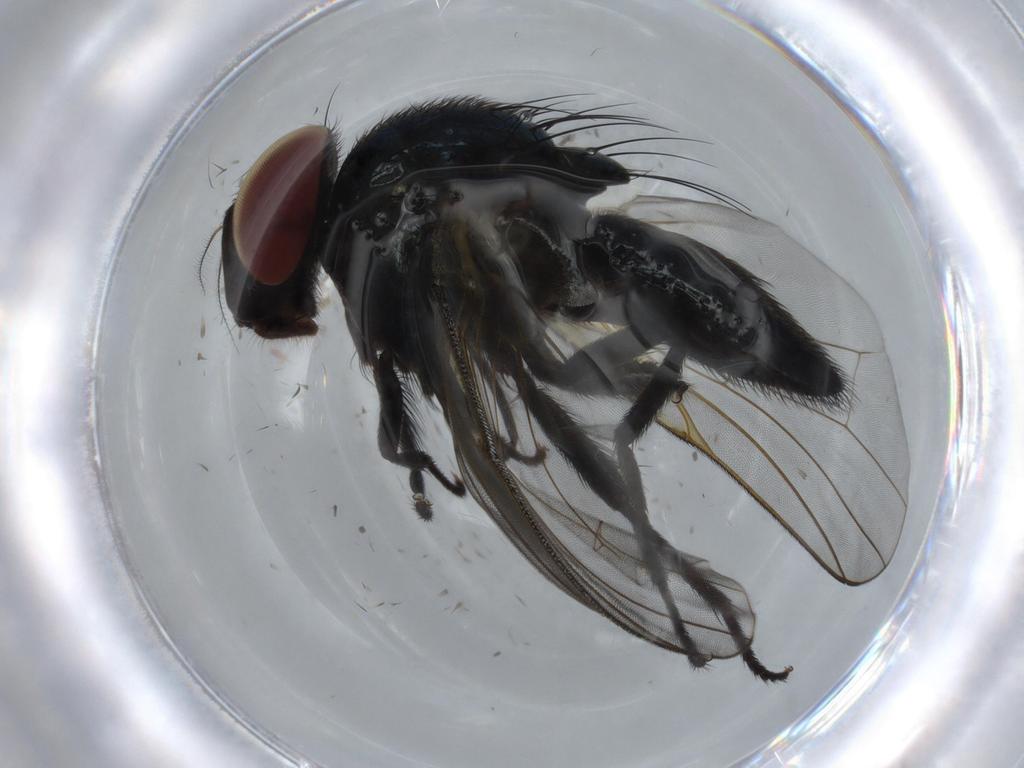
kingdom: Animalia
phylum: Arthropoda
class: Insecta
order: Diptera
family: Lonchaeidae
